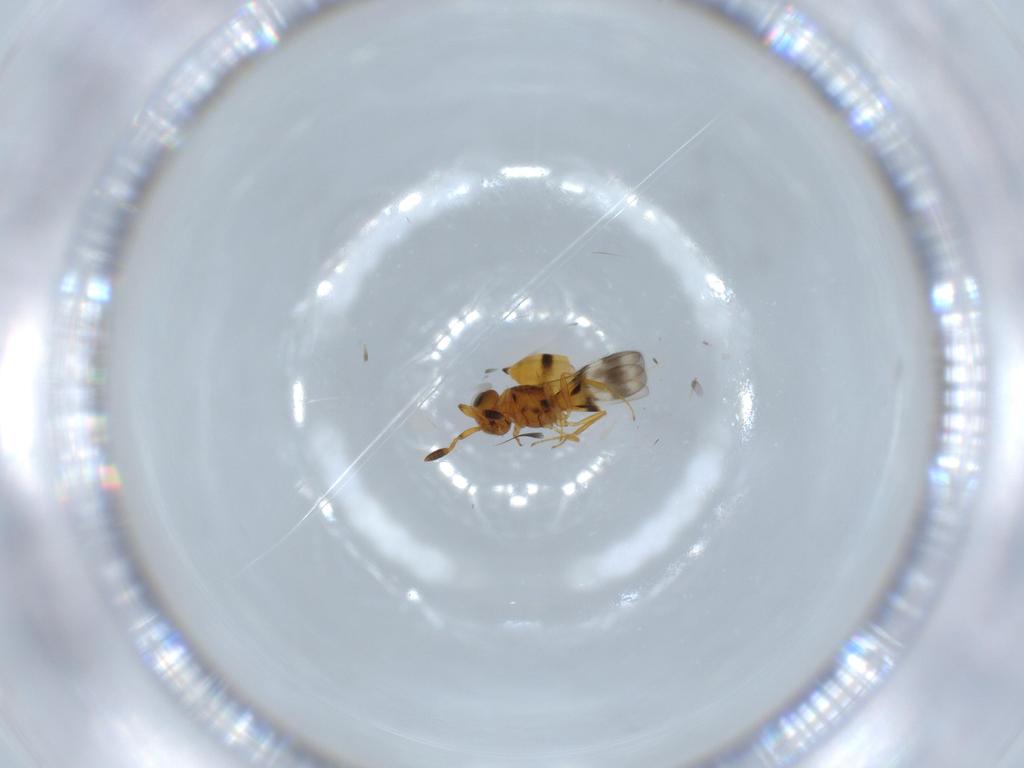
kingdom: Animalia
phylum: Arthropoda
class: Insecta
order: Hymenoptera
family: Scelionidae
